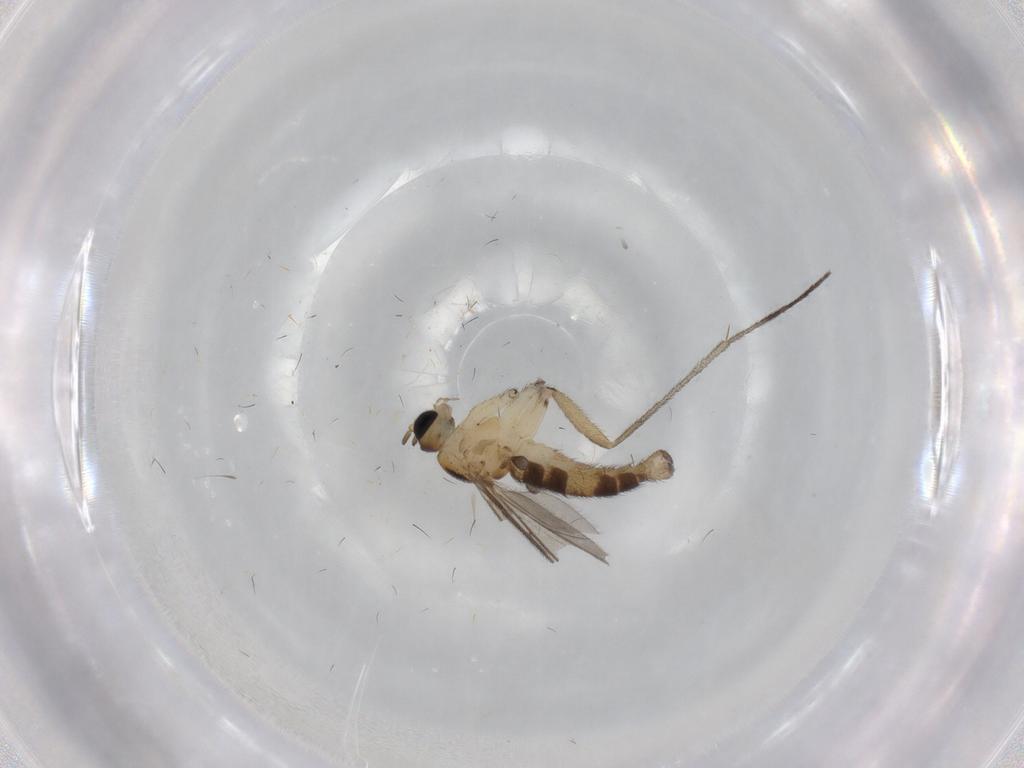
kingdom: Animalia
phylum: Arthropoda
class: Insecta
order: Diptera
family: Sciaridae
